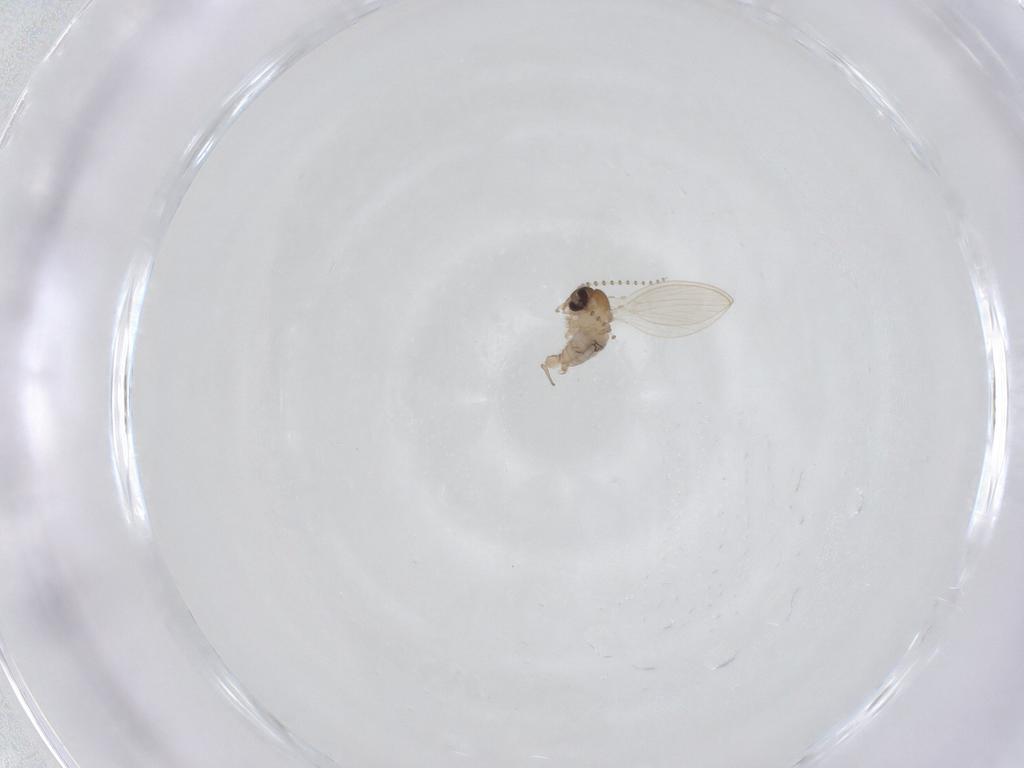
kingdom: Animalia
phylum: Arthropoda
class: Insecta
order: Diptera
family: Psychodidae
